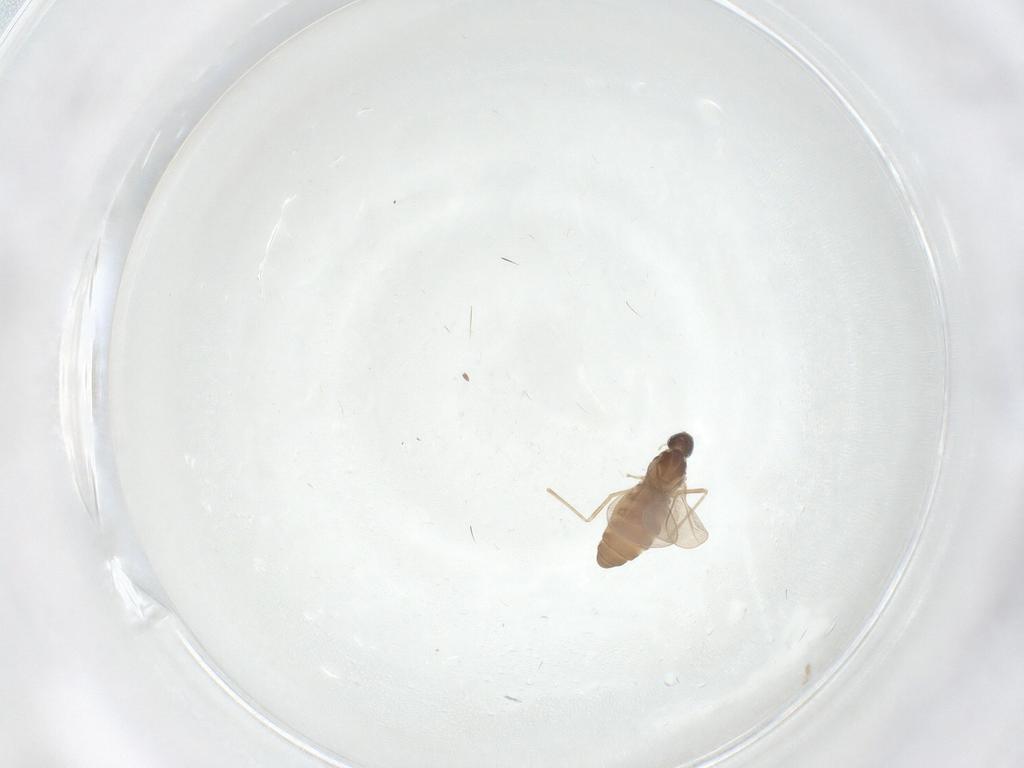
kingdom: Animalia
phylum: Arthropoda
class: Insecta
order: Diptera
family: Cecidomyiidae
